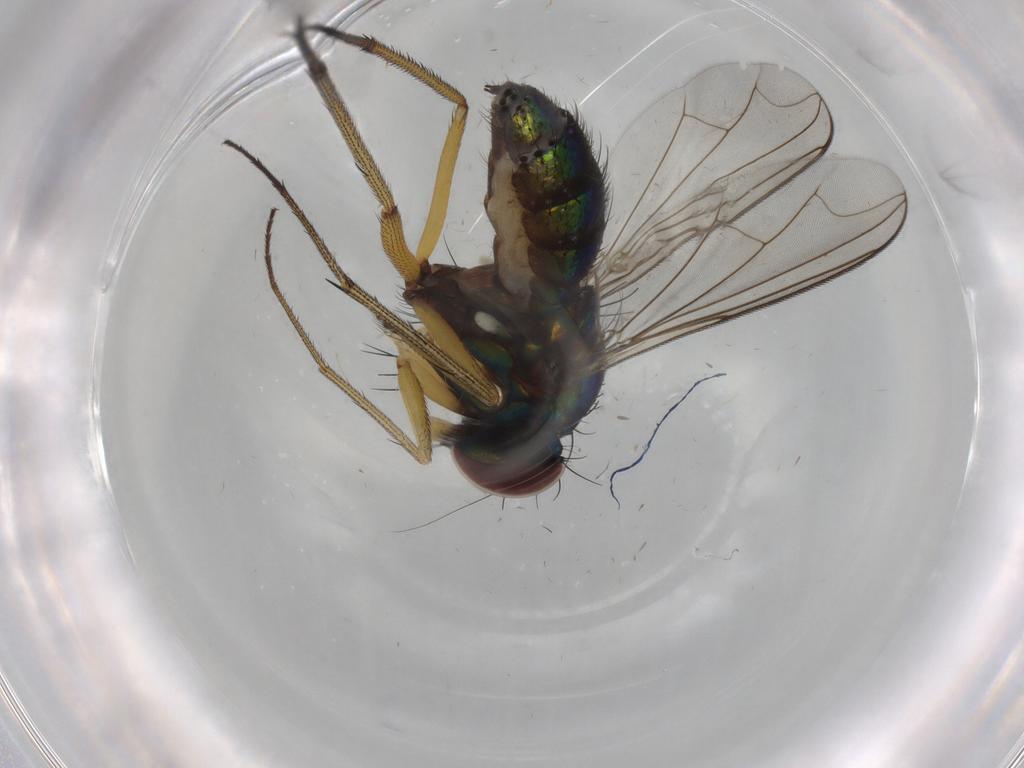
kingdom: Animalia
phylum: Arthropoda
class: Insecta
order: Diptera
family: Dolichopodidae
